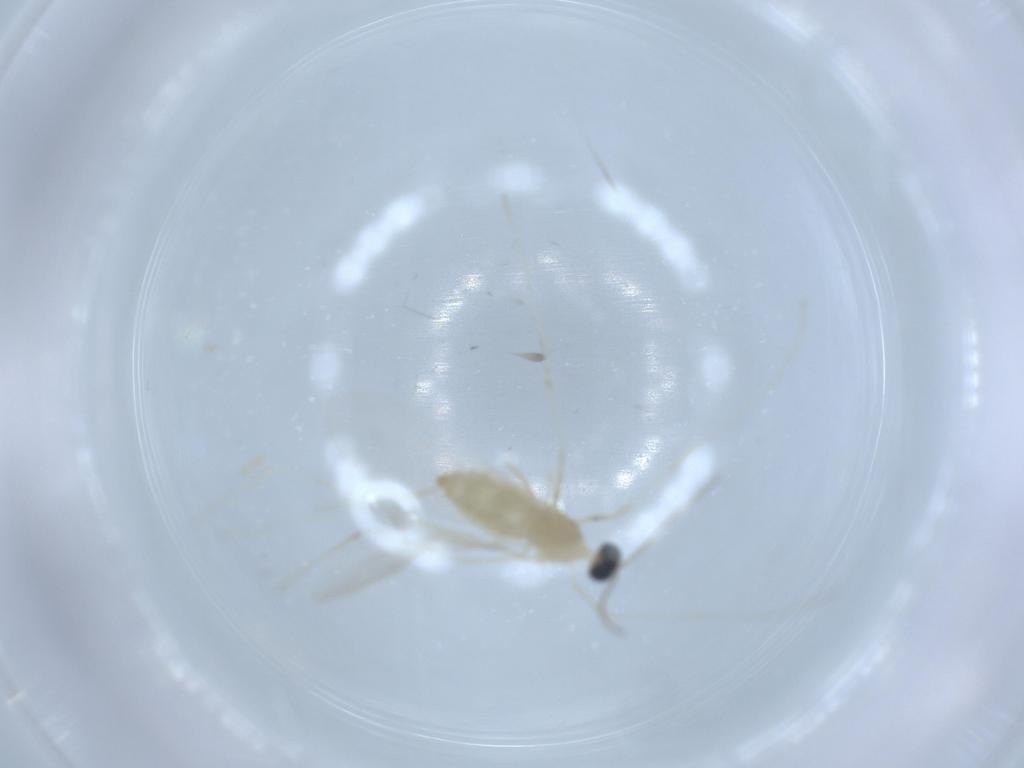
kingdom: Animalia
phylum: Arthropoda
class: Insecta
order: Diptera
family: Sciaridae
